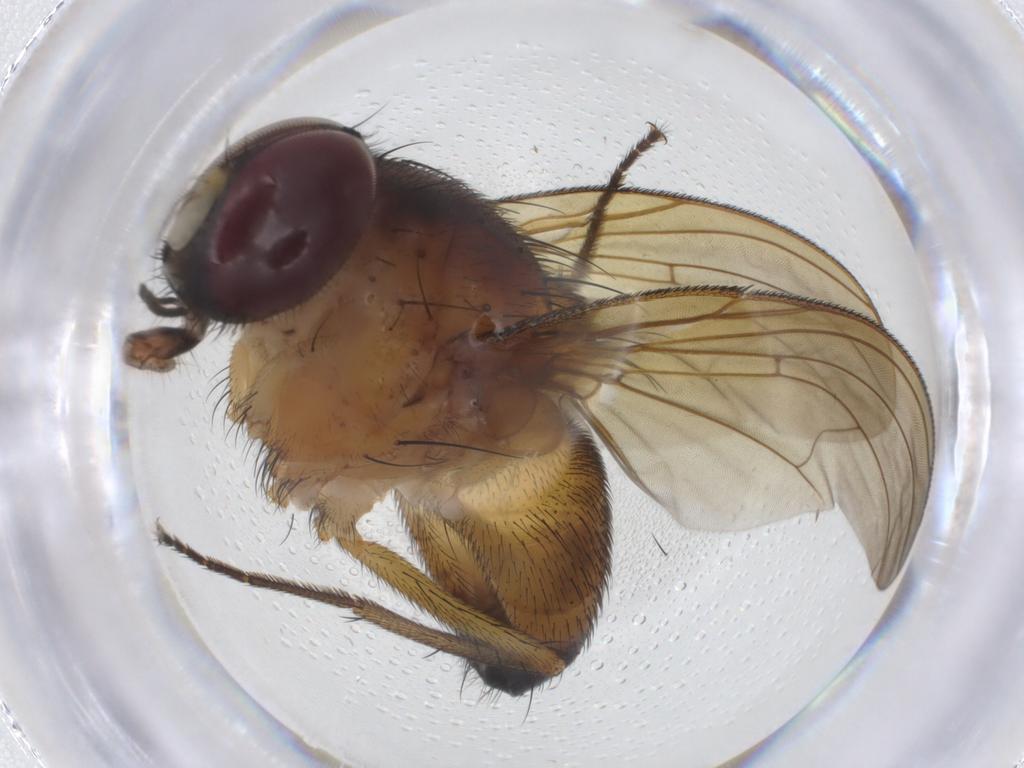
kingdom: Animalia
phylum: Arthropoda
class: Insecta
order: Diptera
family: Muscidae
